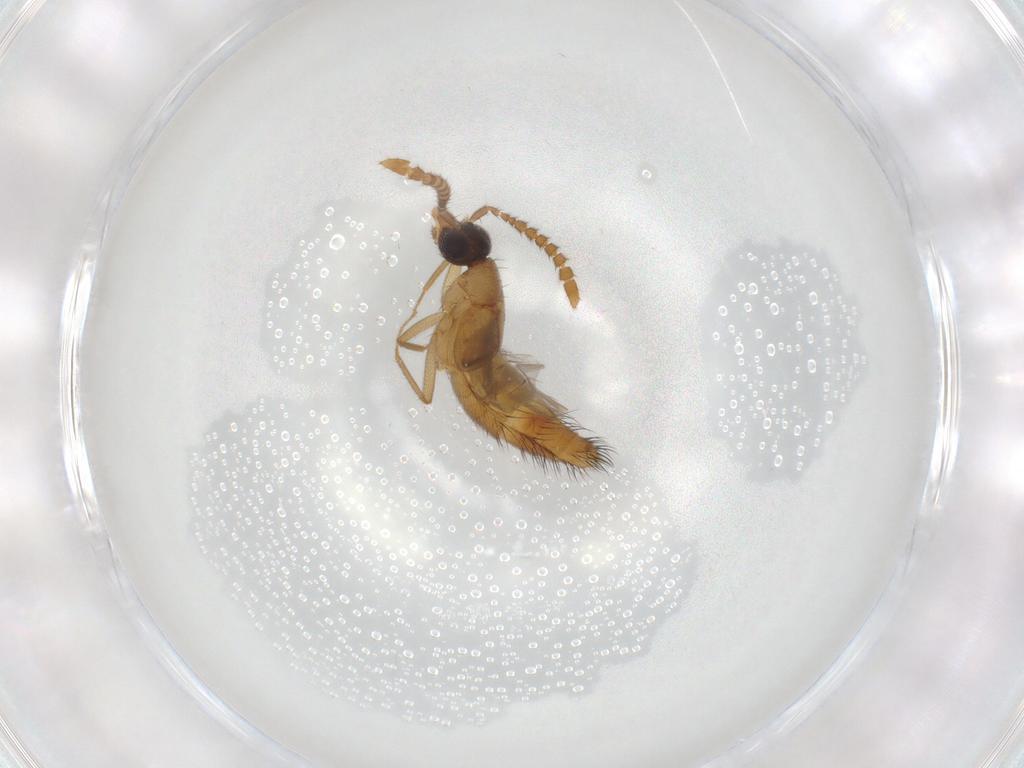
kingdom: Animalia
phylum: Arthropoda
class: Insecta
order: Coleoptera
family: Staphylinidae
